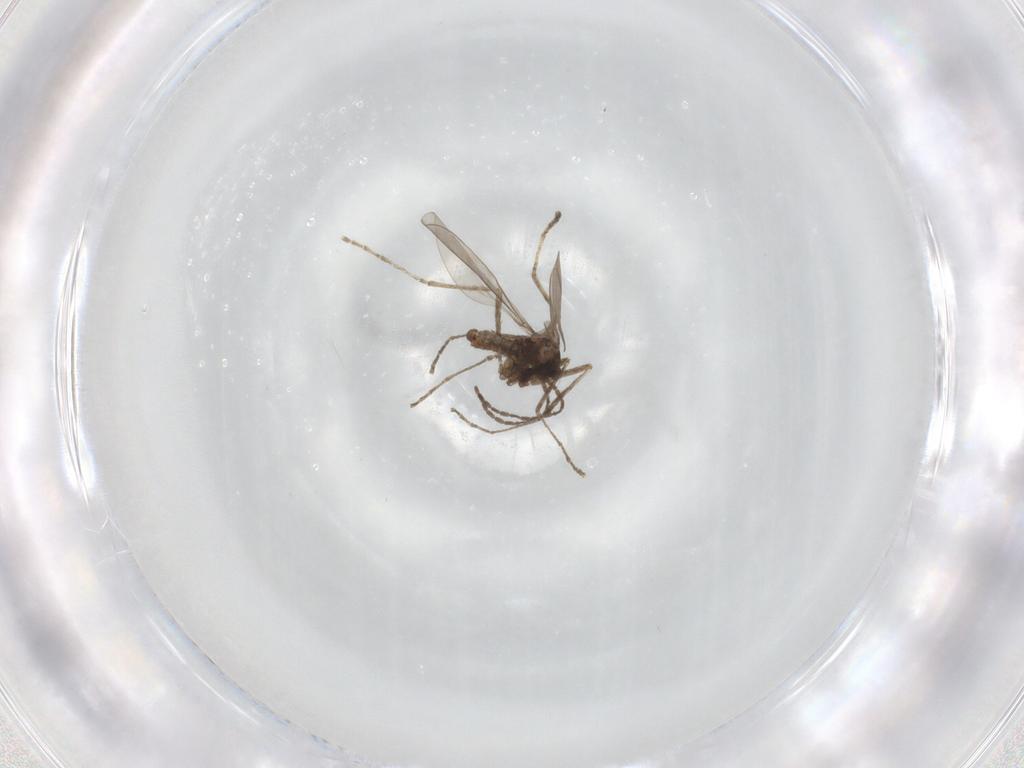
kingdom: Animalia
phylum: Arthropoda
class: Insecta
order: Diptera
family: Cecidomyiidae
